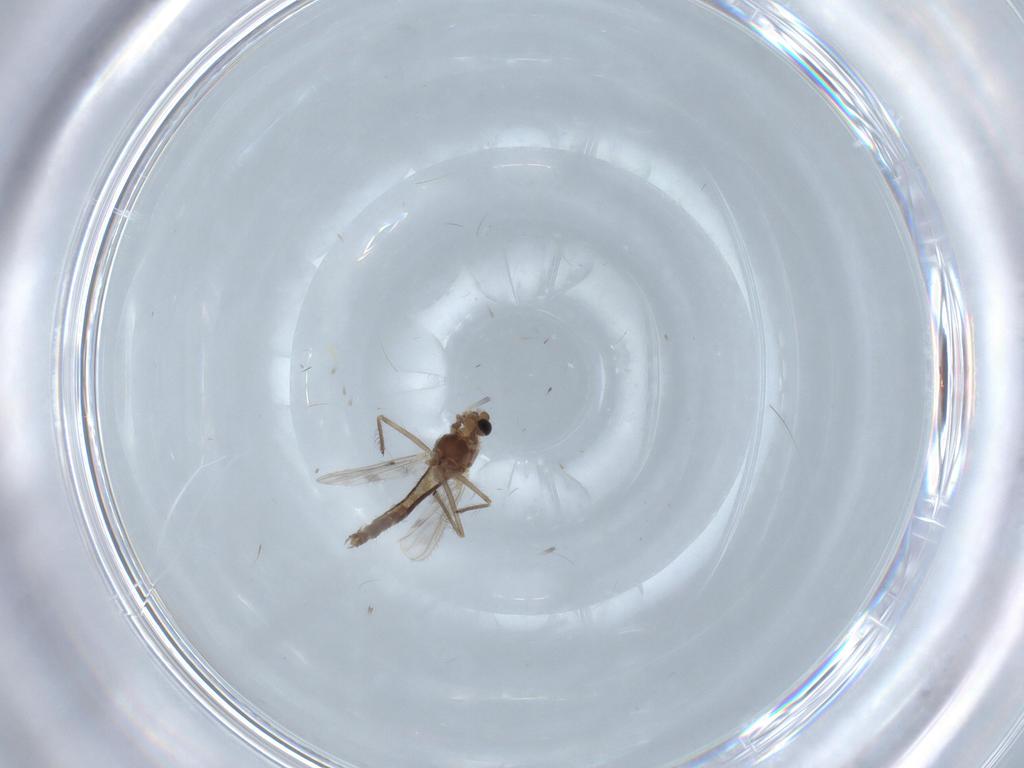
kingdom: Animalia
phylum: Arthropoda
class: Insecta
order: Diptera
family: Chironomidae
